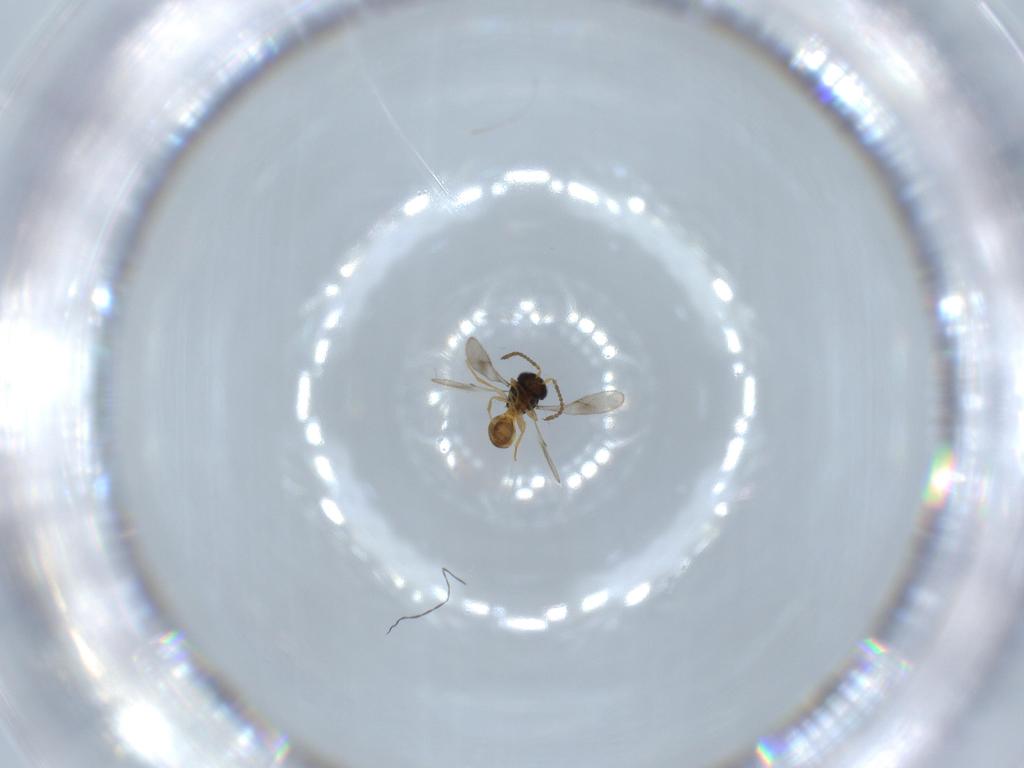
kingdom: Animalia
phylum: Arthropoda
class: Insecta
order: Hymenoptera
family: Scelionidae
